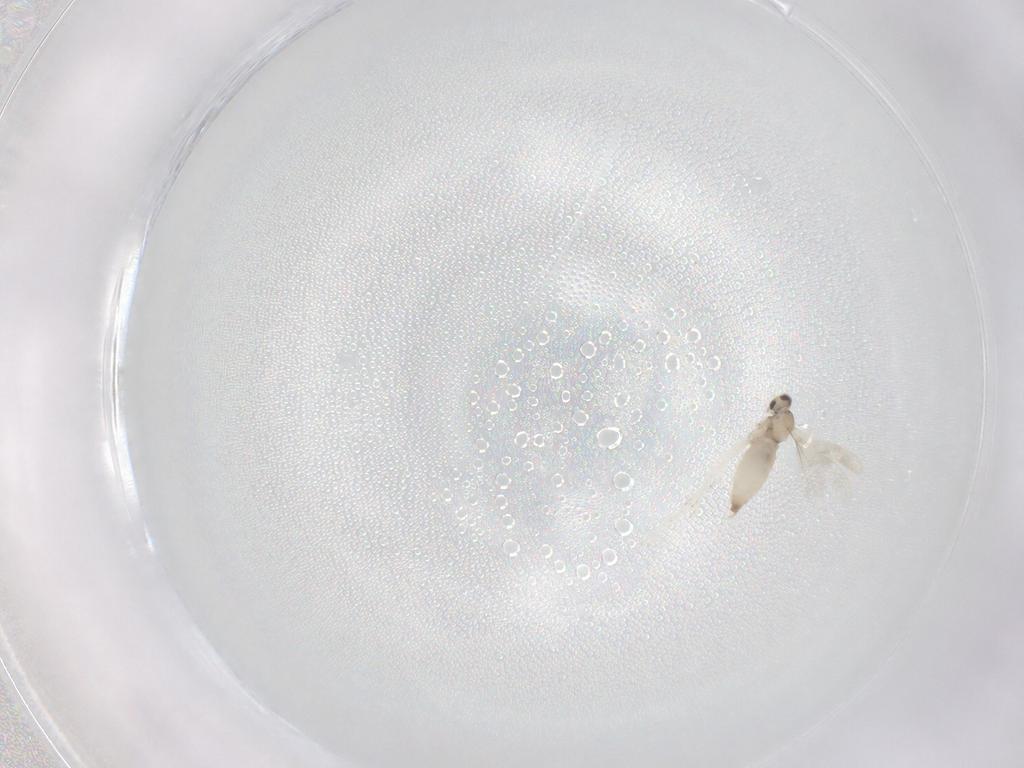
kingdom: Animalia
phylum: Arthropoda
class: Insecta
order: Diptera
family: Cecidomyiidae
